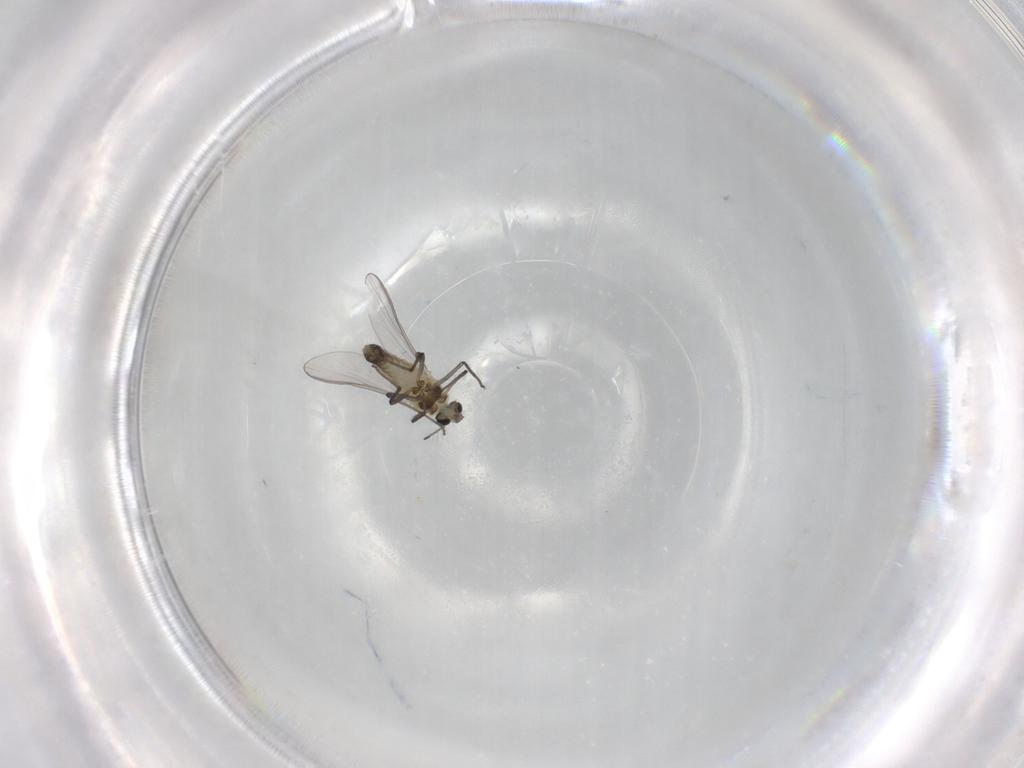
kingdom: Animalia
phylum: Arthropoda
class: Insecta
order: Diptera
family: Chironomidae
